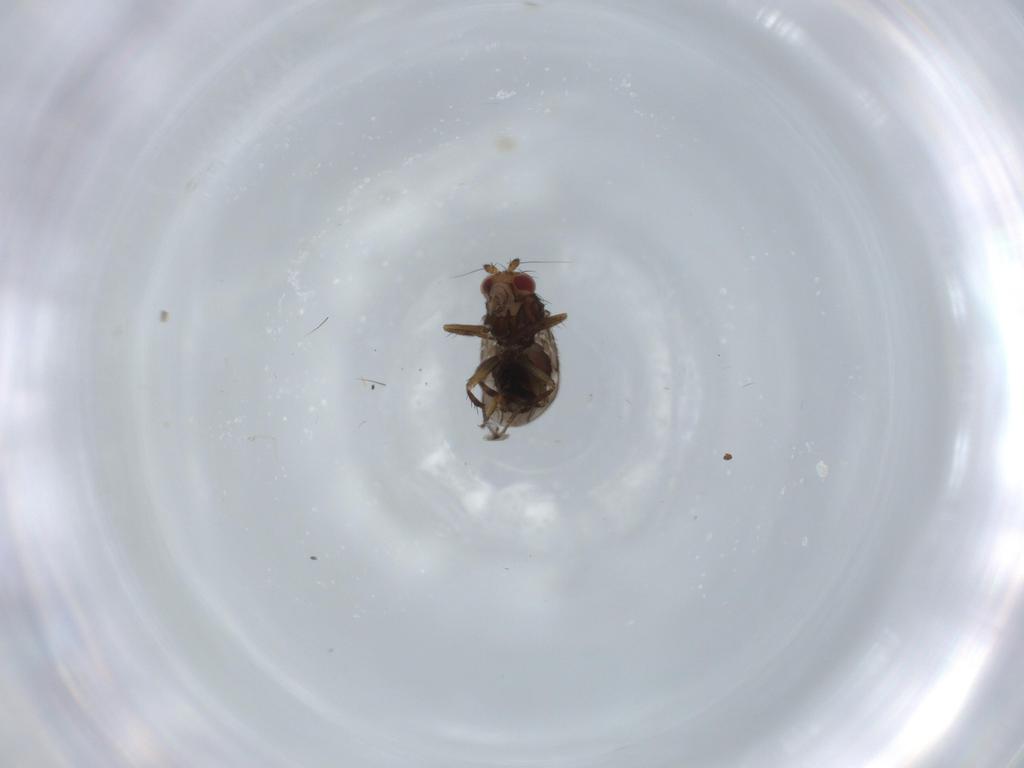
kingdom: Animalia
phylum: Arthropoda
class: Insecta
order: Diptera
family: Sphaeroceridae
